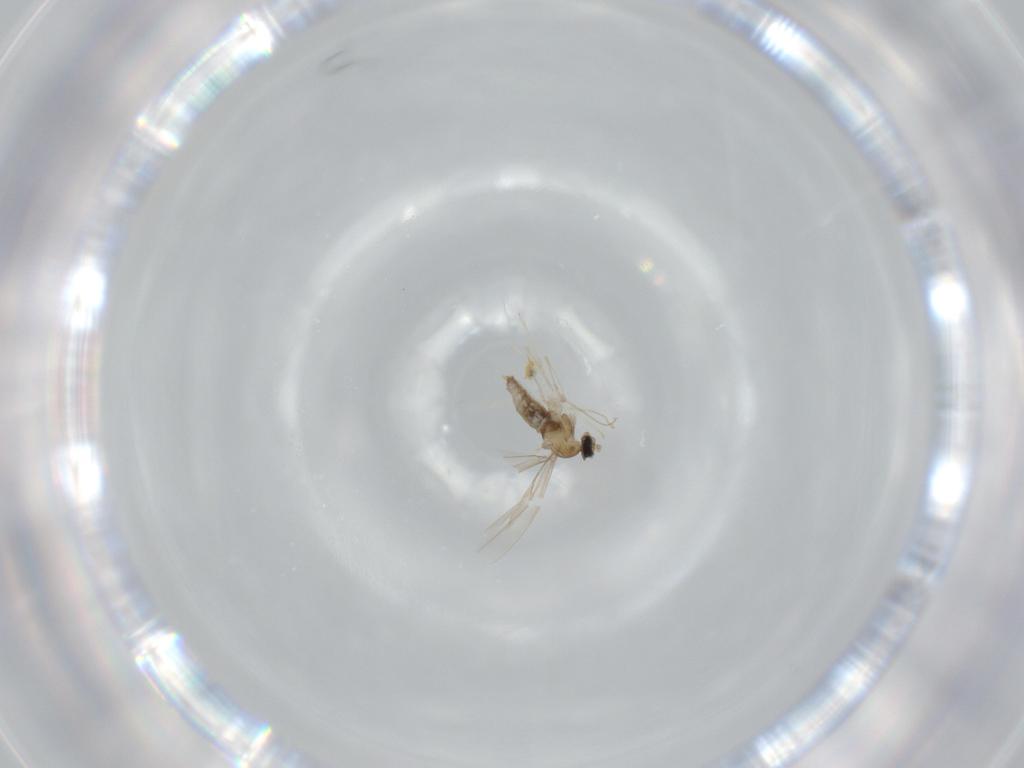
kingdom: Animalia
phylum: Arthropoda
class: Insecta
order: Diptera
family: Cecidomyiidae
